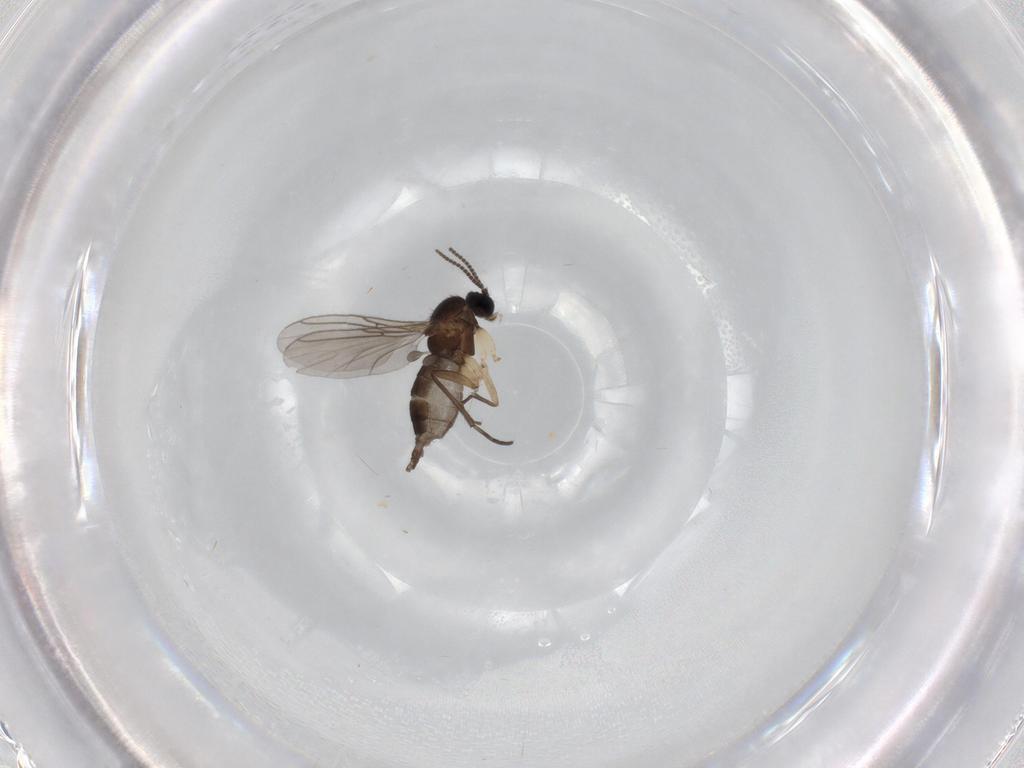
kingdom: Animalia
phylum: Arthropoda
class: Insecta
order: Diptera
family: Sciaridae
